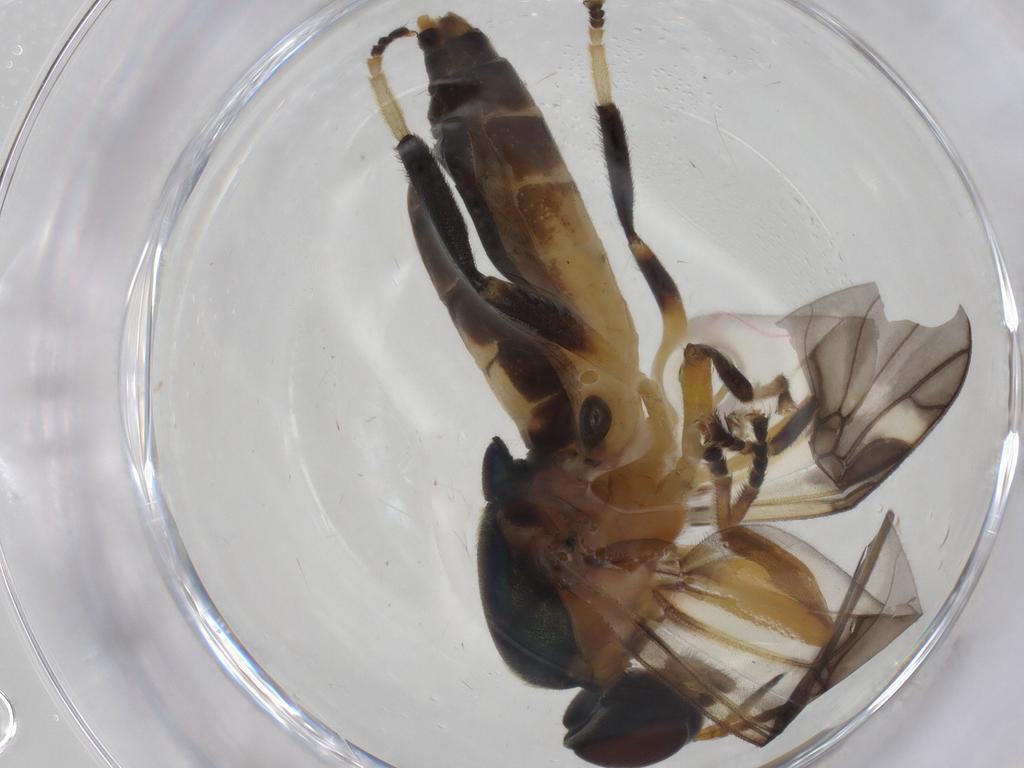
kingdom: Animalia
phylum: Arthropoda
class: Insecta
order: Diptera
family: Stratiomyidae
